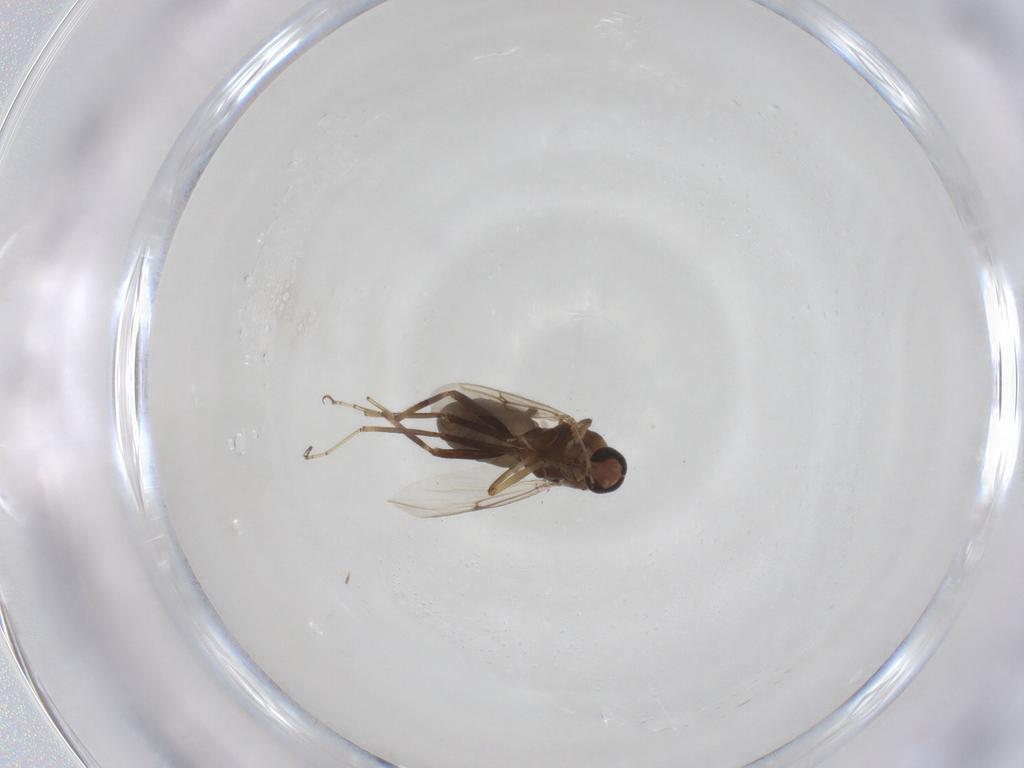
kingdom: Animalia
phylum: Arthropoda
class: Insecta
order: Diptera
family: Ceratopogonidae
